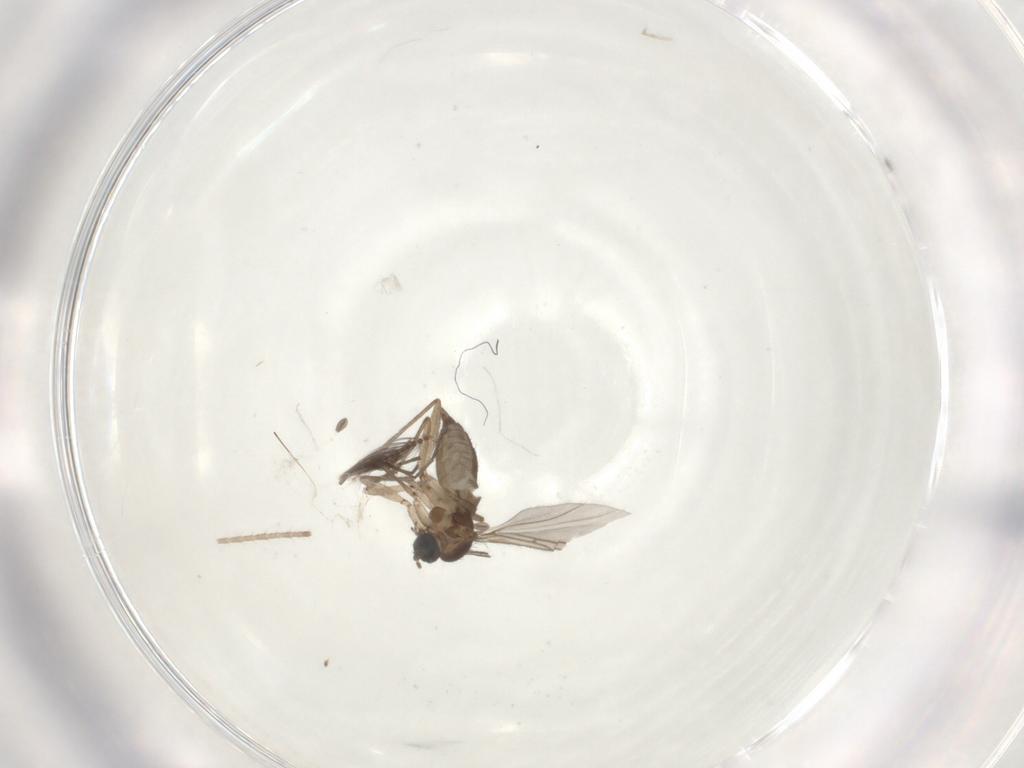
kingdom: Animalia
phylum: Arthropoda
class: Insecta
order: Diptera
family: Sciaridae
